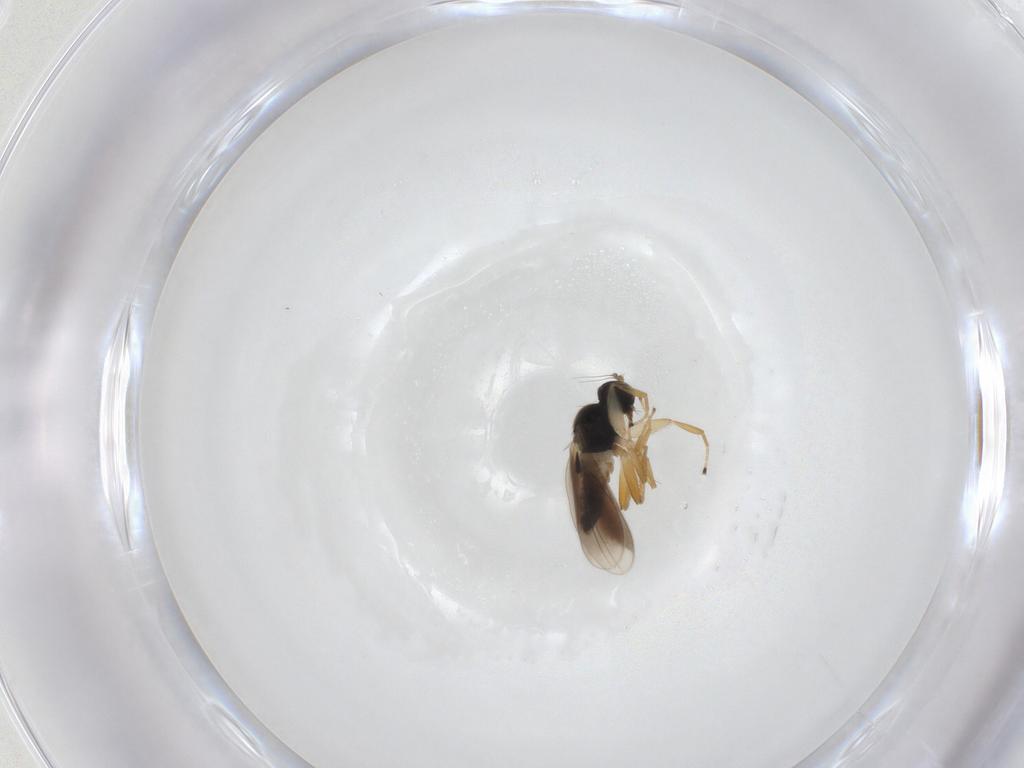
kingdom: Animalia
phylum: Arthropoda
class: Insecta
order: Diptera
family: Hybotidae
